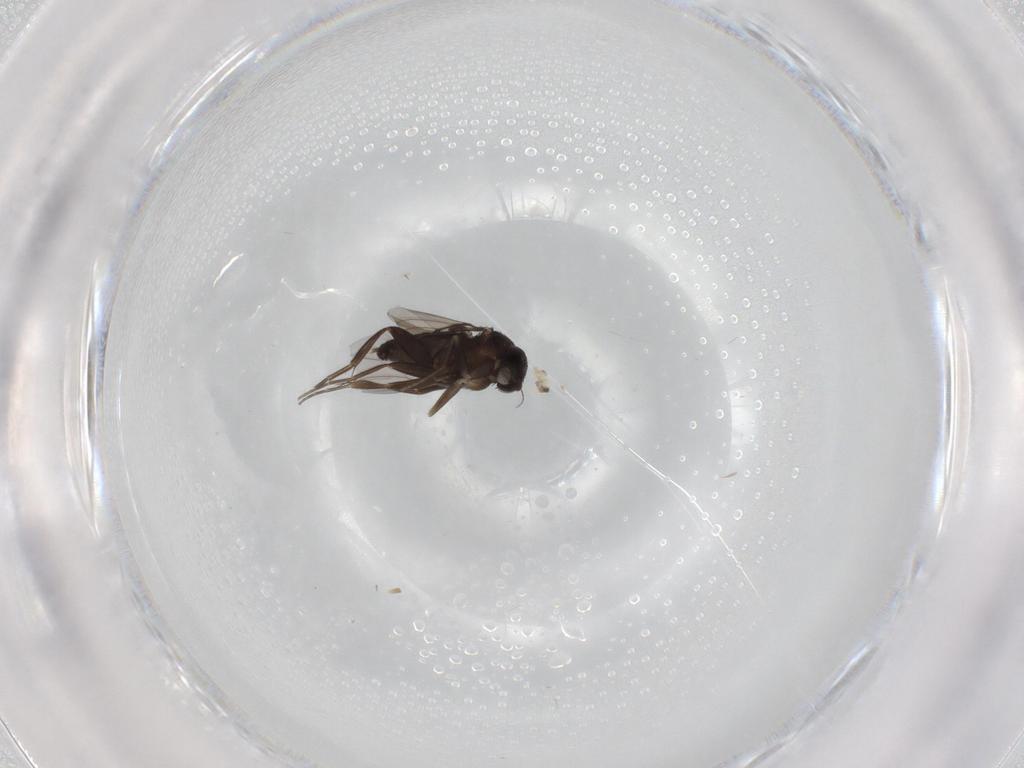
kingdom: Animalia
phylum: Arthropoda
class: Insecta
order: Diptera
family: Cecidomyiidae
